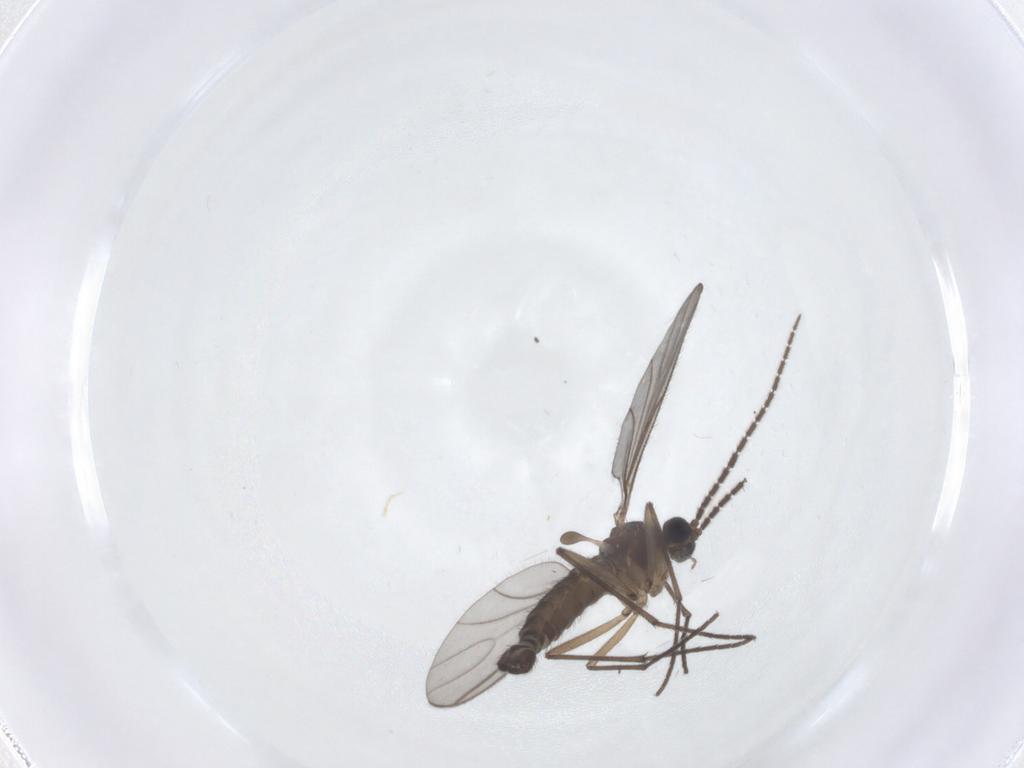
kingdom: Animalia
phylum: Arthropoda
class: Insecta
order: Diptera
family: Sciaridae
